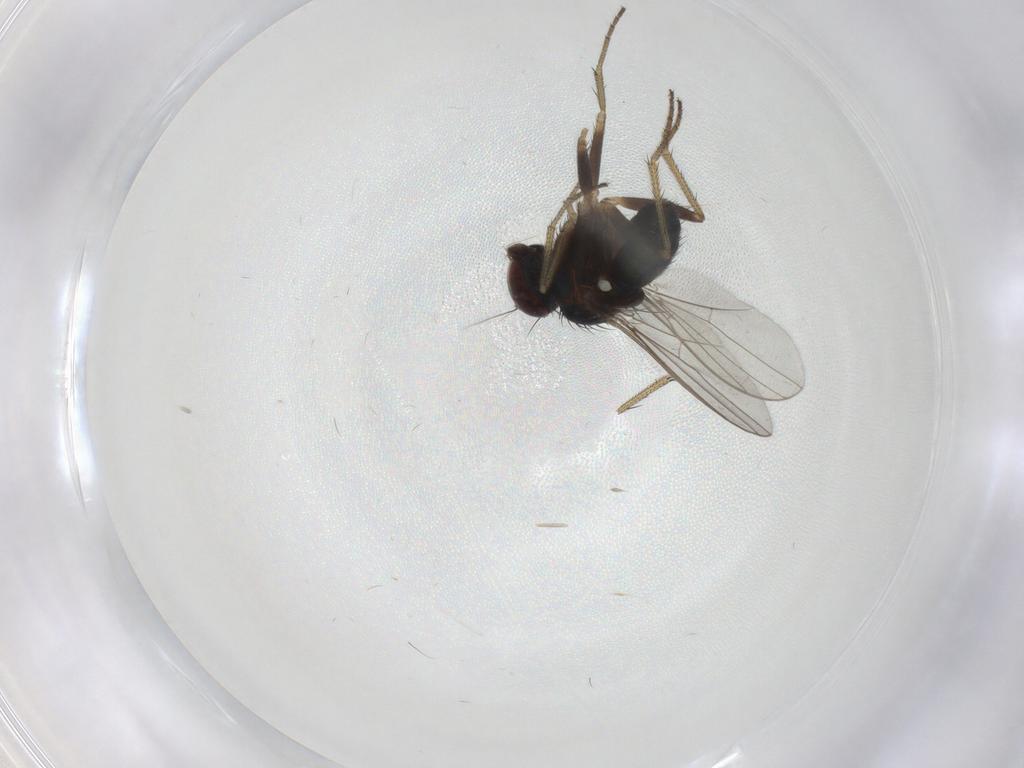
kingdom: Animalia
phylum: Arthropoda
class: Insecta
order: Diptera
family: Dolichopodidae
